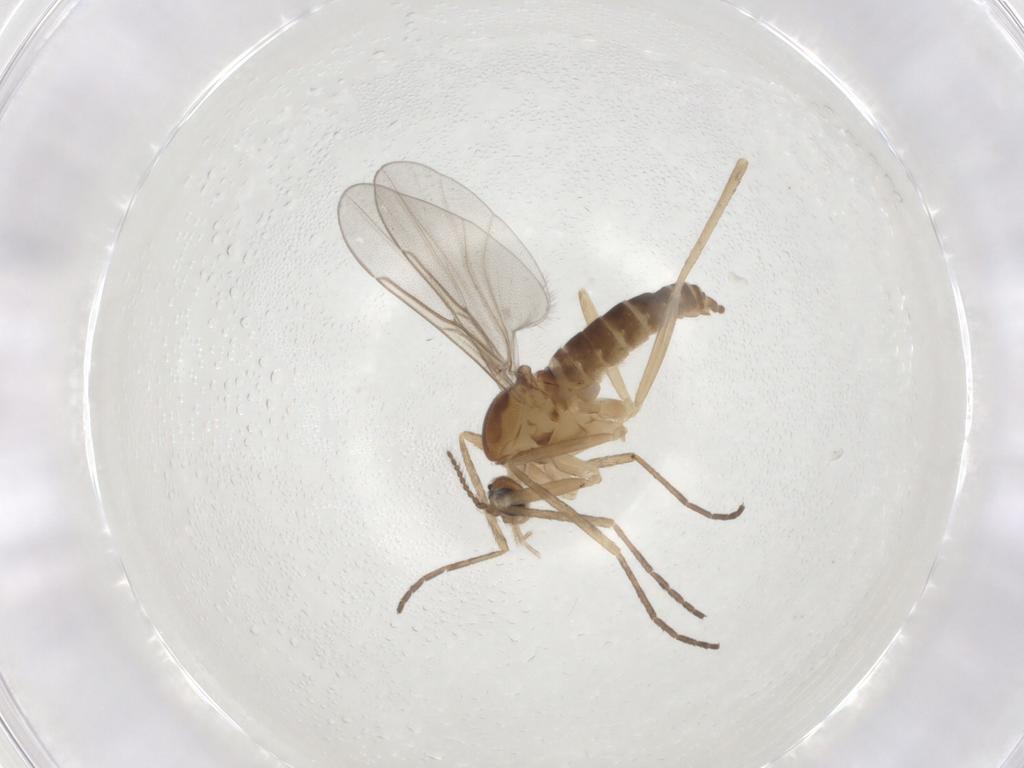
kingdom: Animalia
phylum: Arthropoda
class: Insecta
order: Diptera
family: Cecidomyiidae
